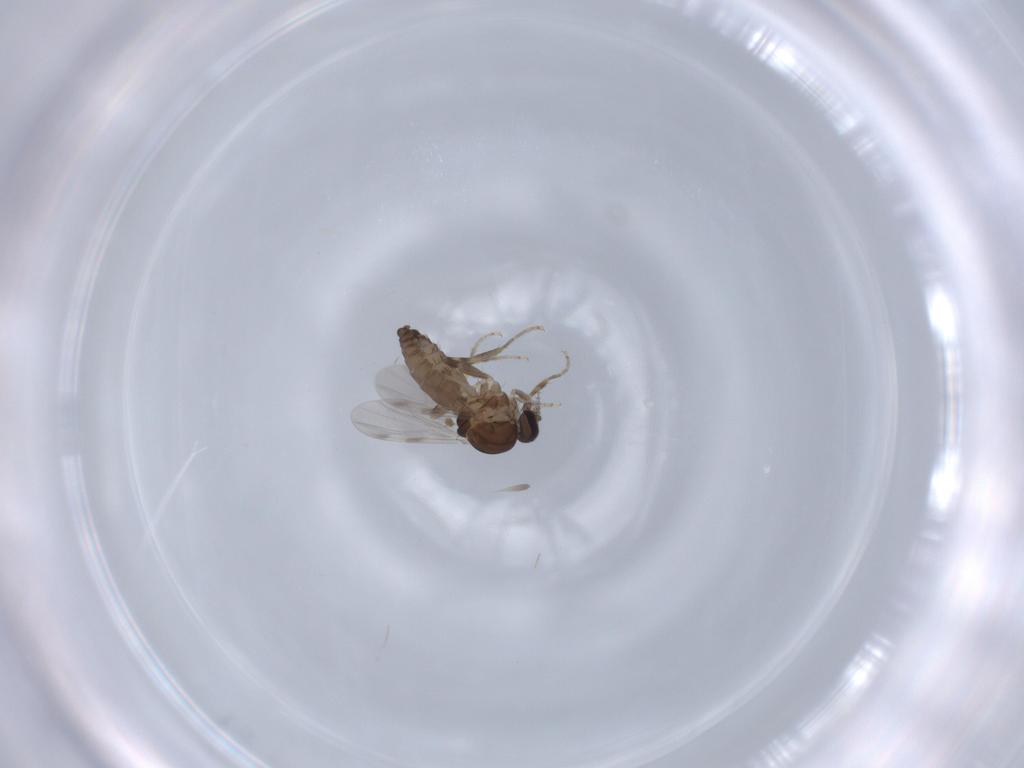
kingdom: Animalia
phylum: Arthropoda
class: Insecta
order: Diptera
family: Ceratopogonidae
